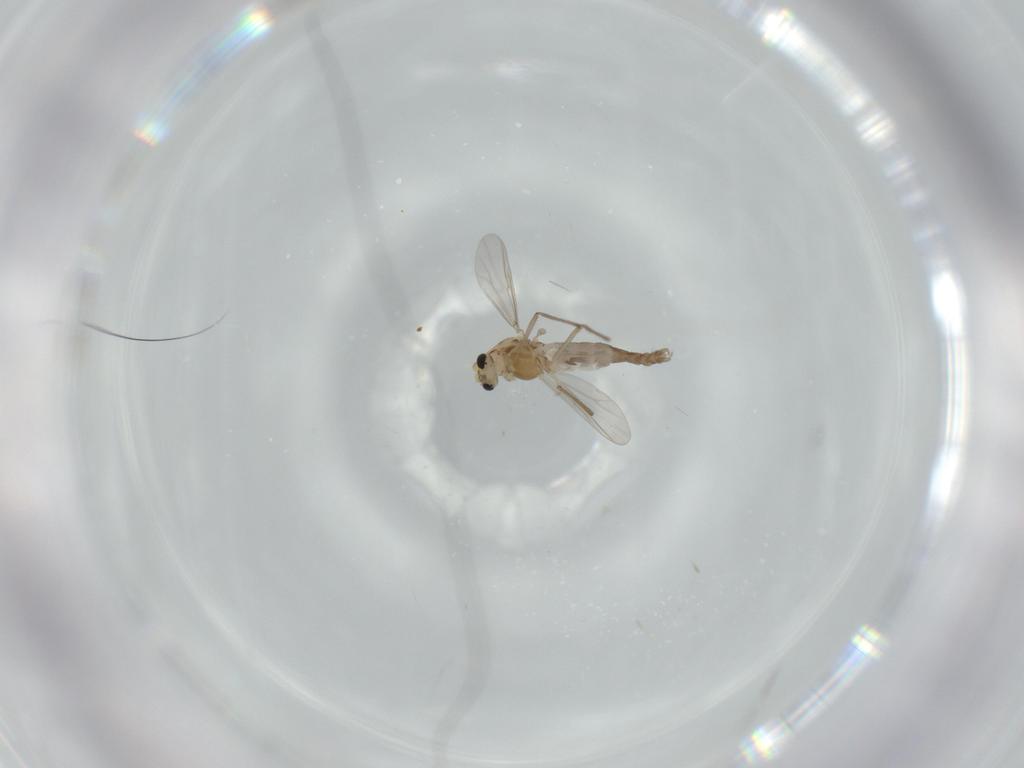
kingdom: Animalia
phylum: Arthropoda
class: Insecta
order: Diptera
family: Chironomidae
